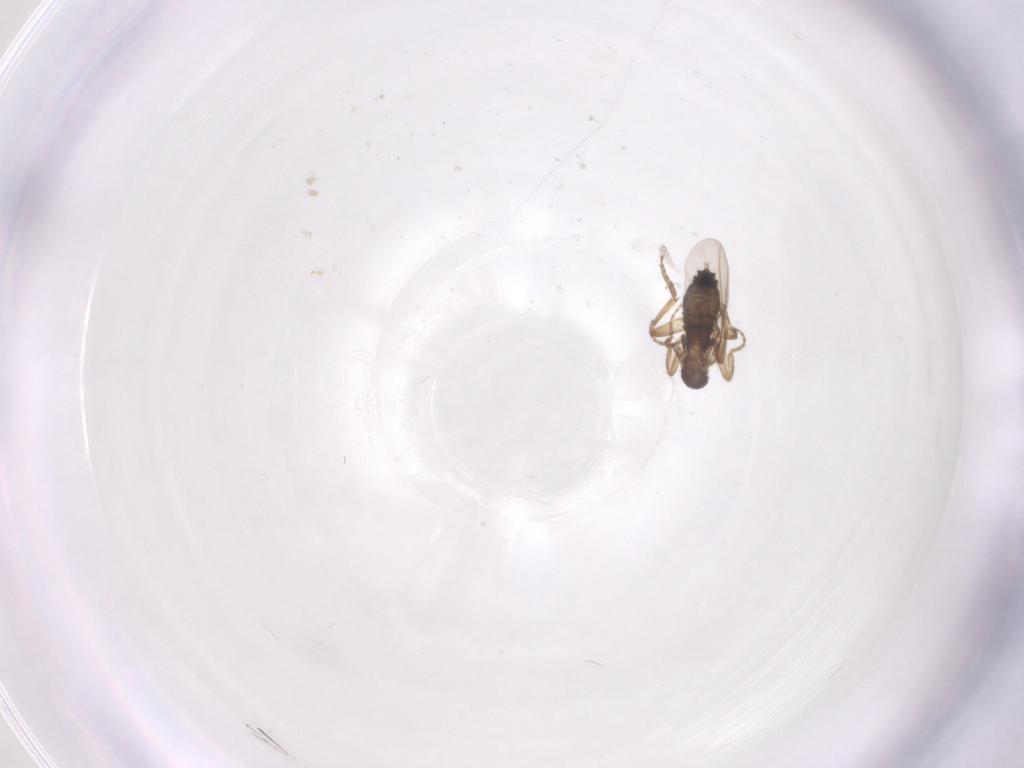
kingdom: Animalia
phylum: Arthropoda
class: Insecta
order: Diptera
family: Phoridae
